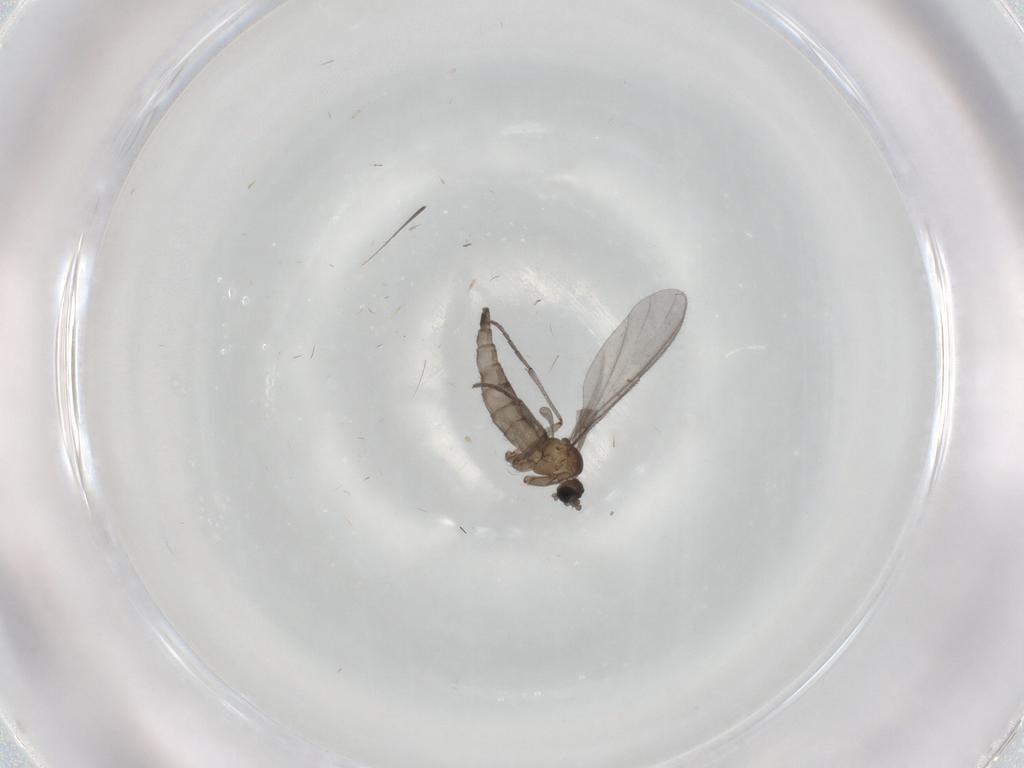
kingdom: Animalia
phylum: Arthropoda
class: Insecta
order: Diptera
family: Sciaridae
